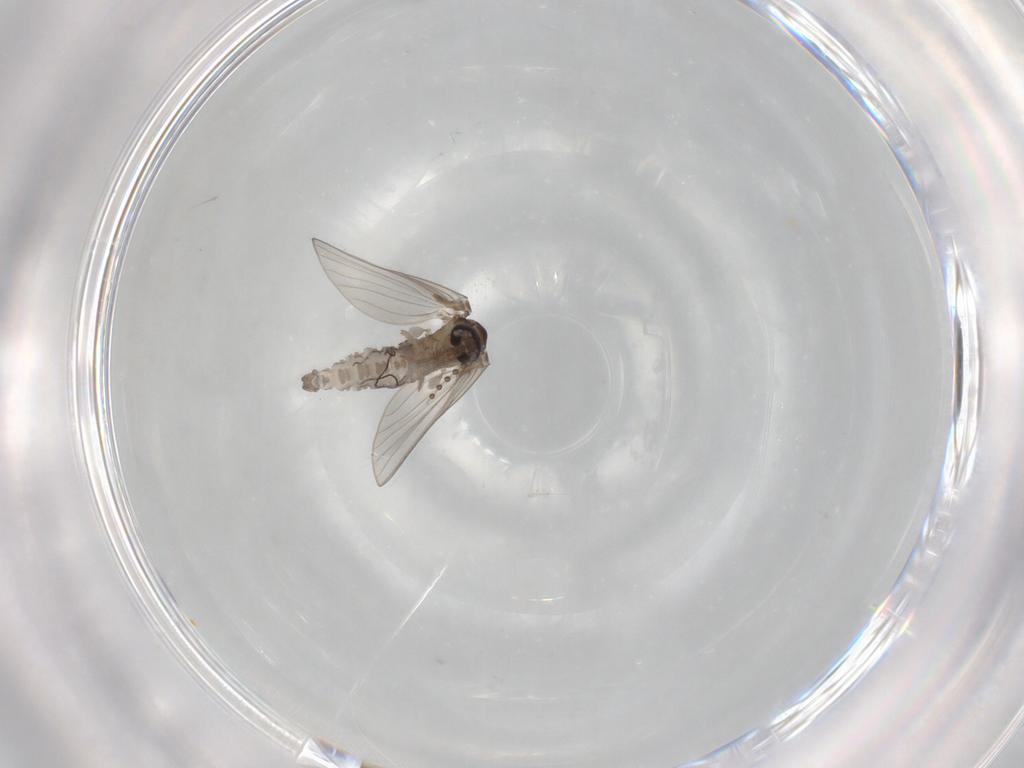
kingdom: Animalia
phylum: Arthropoda
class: Insecta
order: Diptera
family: Psychodidae
